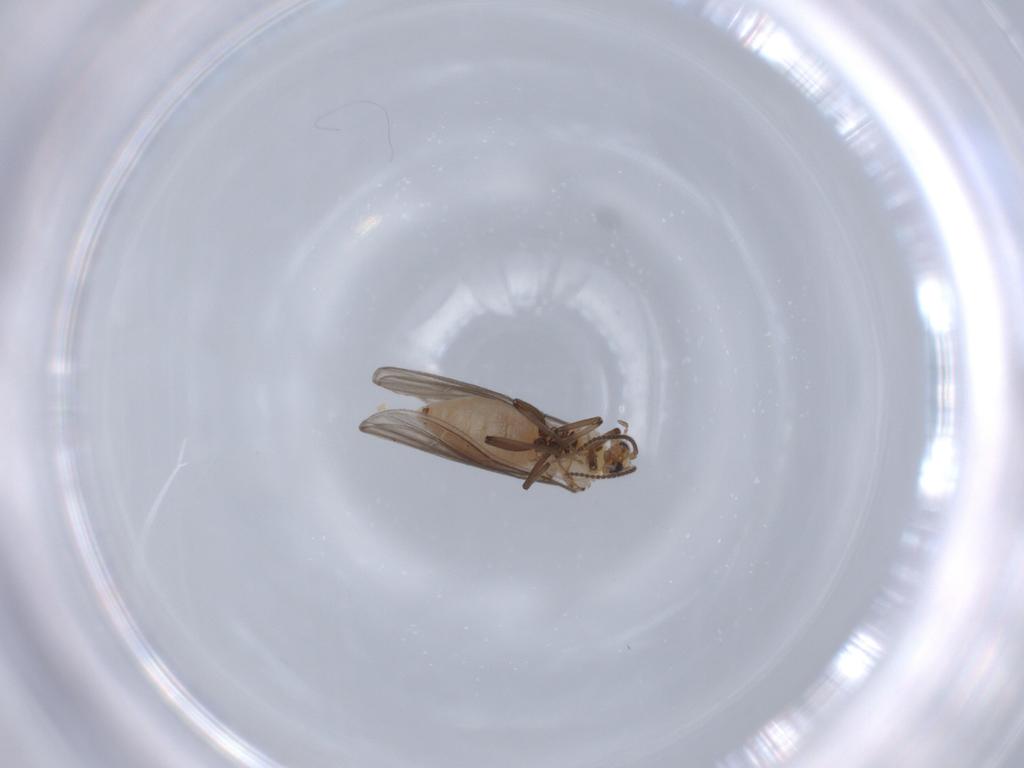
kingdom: Animalia
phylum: Arthropoda
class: Insecta
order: Neuroptera
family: Coniopterygidae
